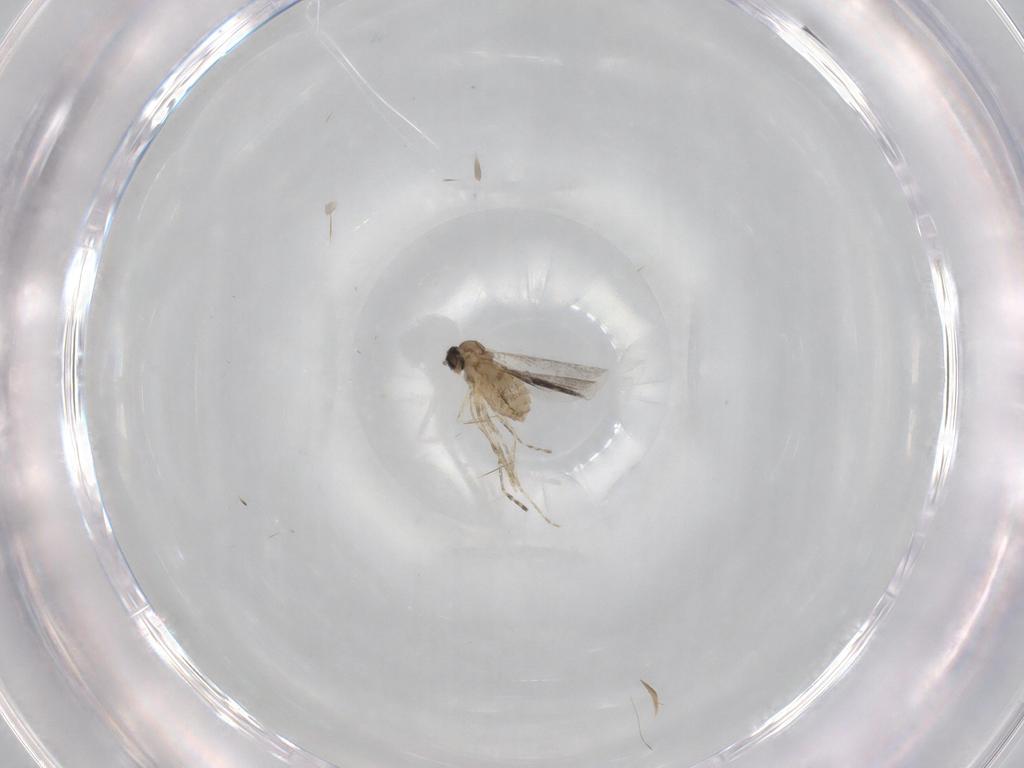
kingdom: Animalia
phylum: Arthropoda
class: Insecta
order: Diptera
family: Cecidomyiidae
